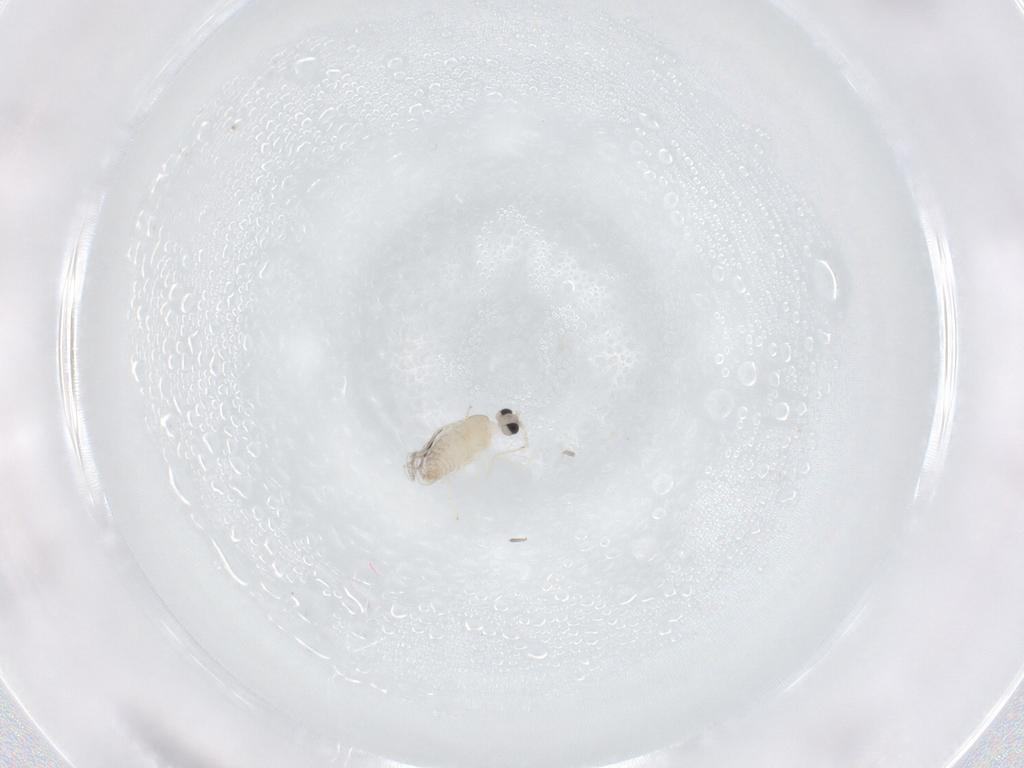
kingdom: Animalia
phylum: Arthropoda
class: Insecta
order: Diptera
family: Cecidomyiidae
